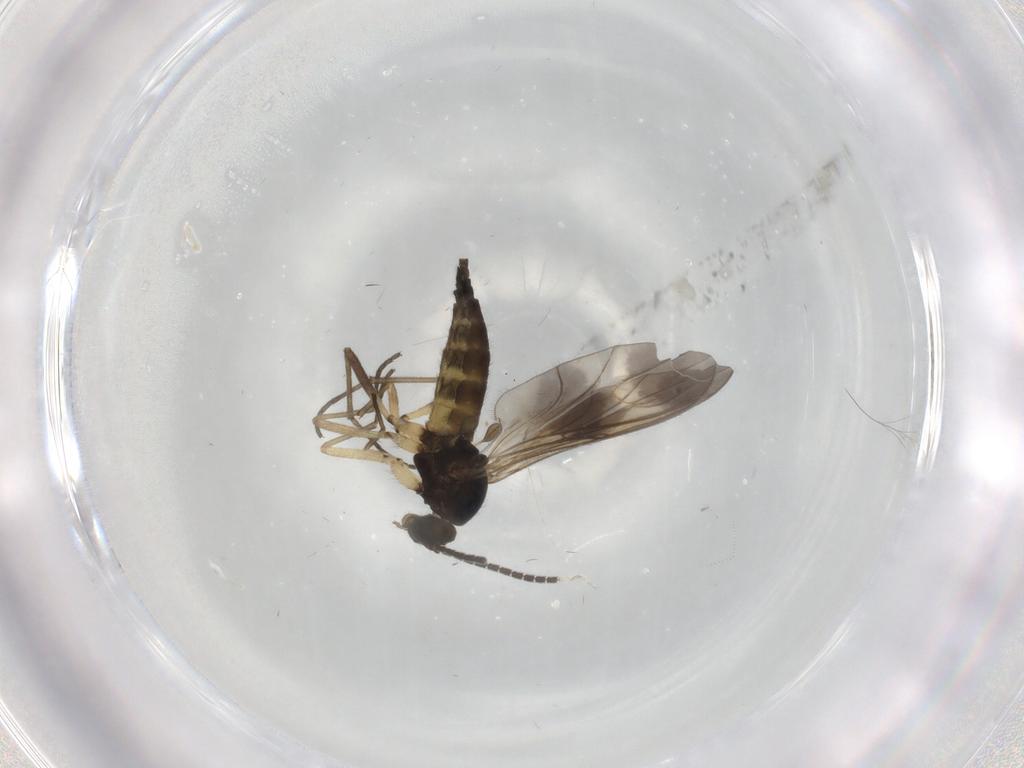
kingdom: Animalia
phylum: Arthropoda
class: Insecta
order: Diptera
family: Sciaridae
